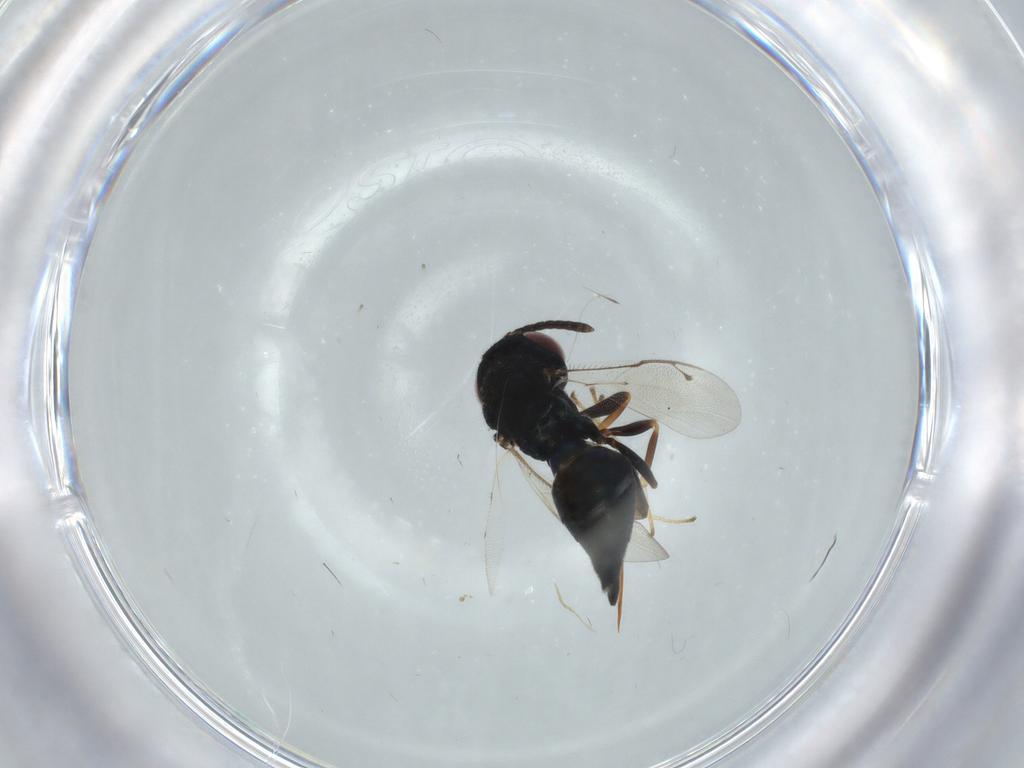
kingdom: Animalia
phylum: Arthropoda
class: Insecta
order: Hymenoptera
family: Pteromalidae
